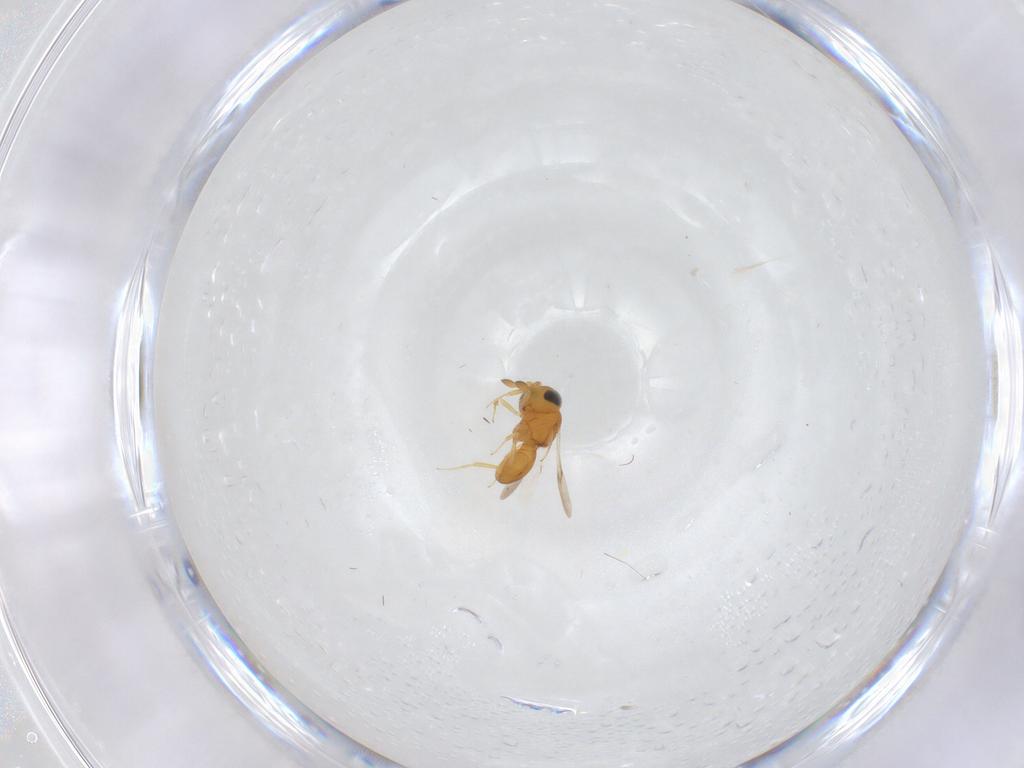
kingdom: Animalia
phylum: Arthropoda
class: Insecta
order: Hymenoptera
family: Scelionidae
